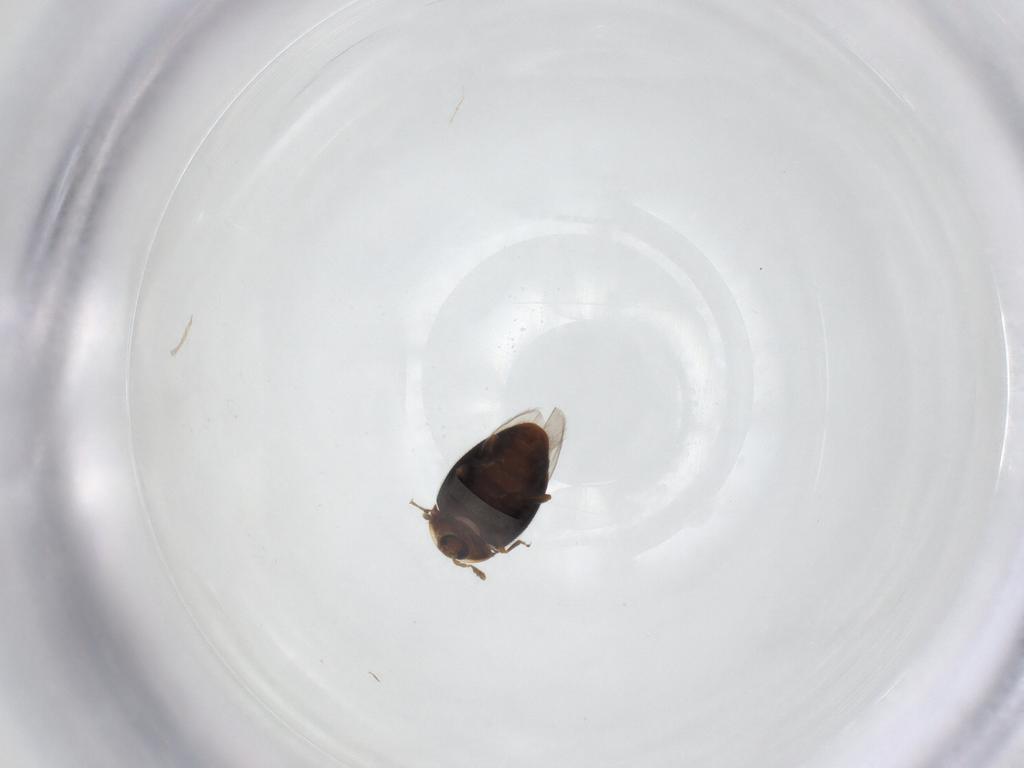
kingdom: Animalia
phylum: Arthropoda
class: Insecta
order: Coleoptera
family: Corylophidae
